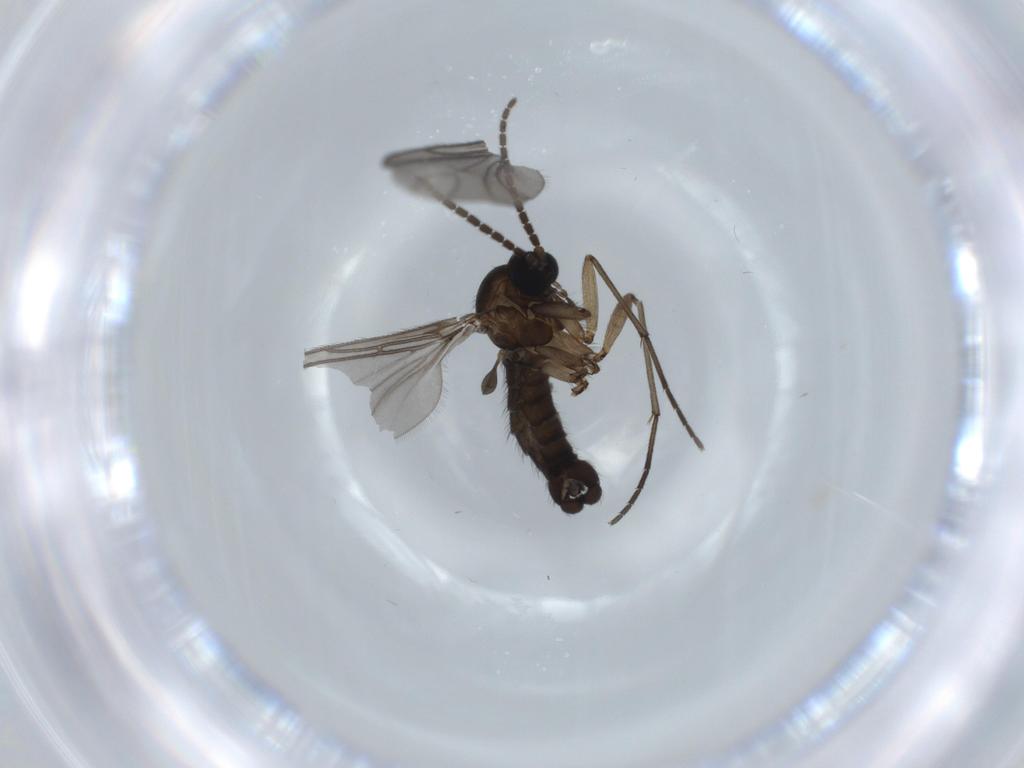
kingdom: Animalia
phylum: Arthropoda
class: Insecta
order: Diptera
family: Sciaridae
